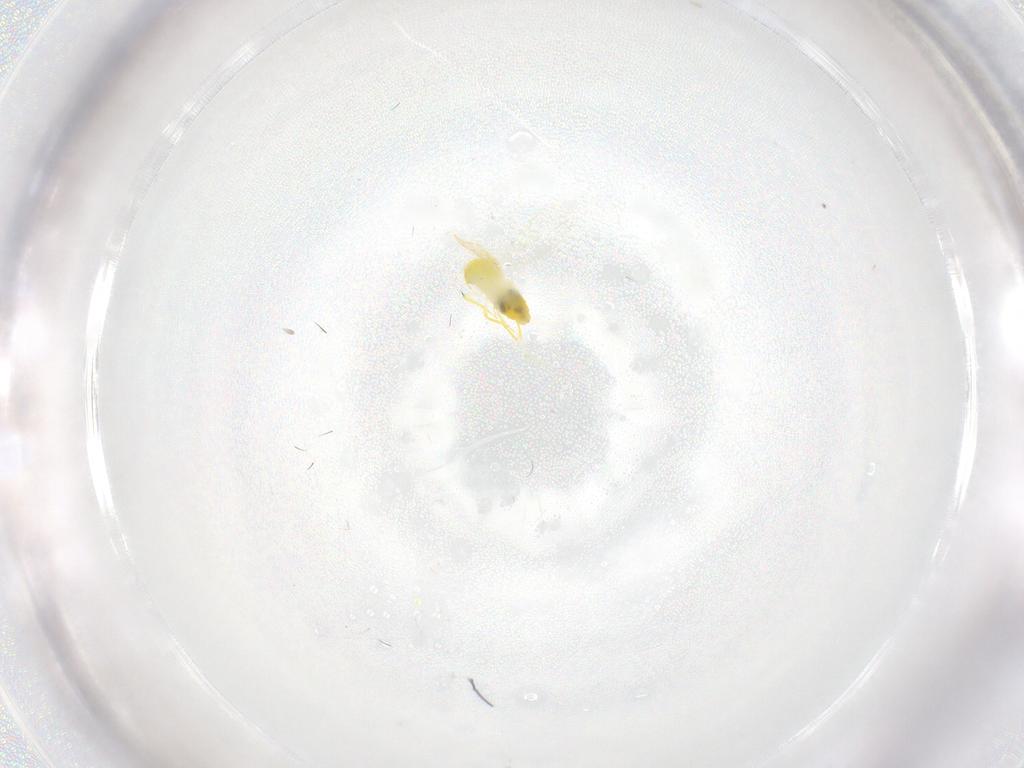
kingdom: Animalia
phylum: Arthropoda
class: Insecta
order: Hemiptera
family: Aleyrodidae
